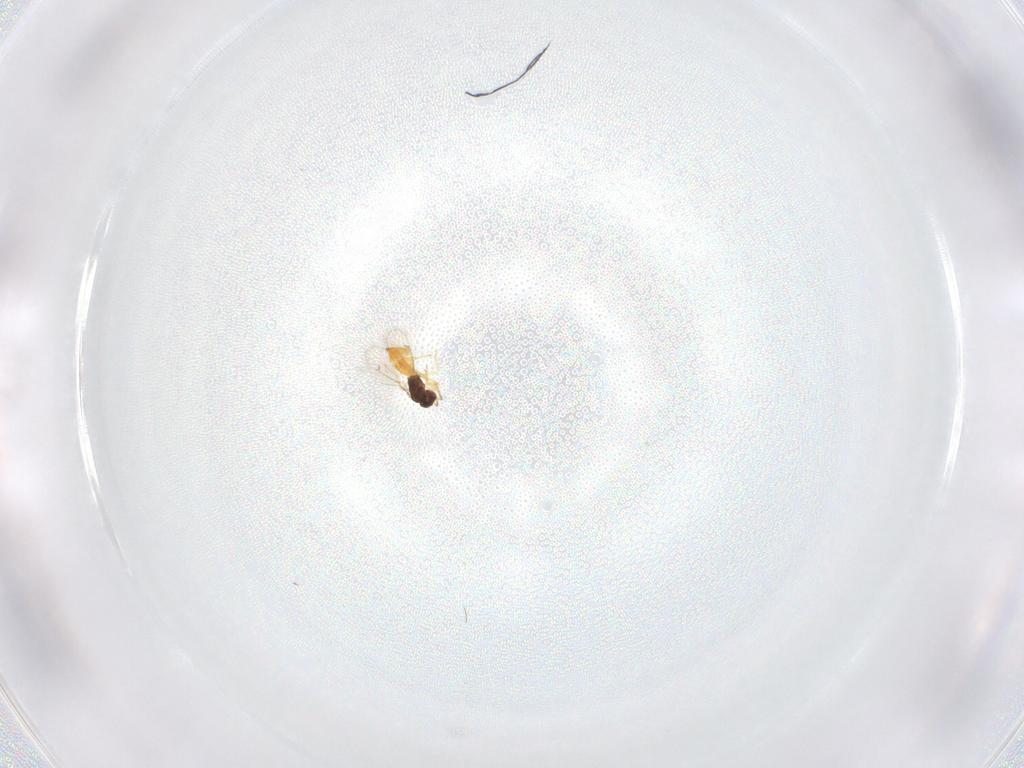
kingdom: Animalia
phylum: Arthropoda
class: Insecta
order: Hymenoptera
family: Eulophidae
